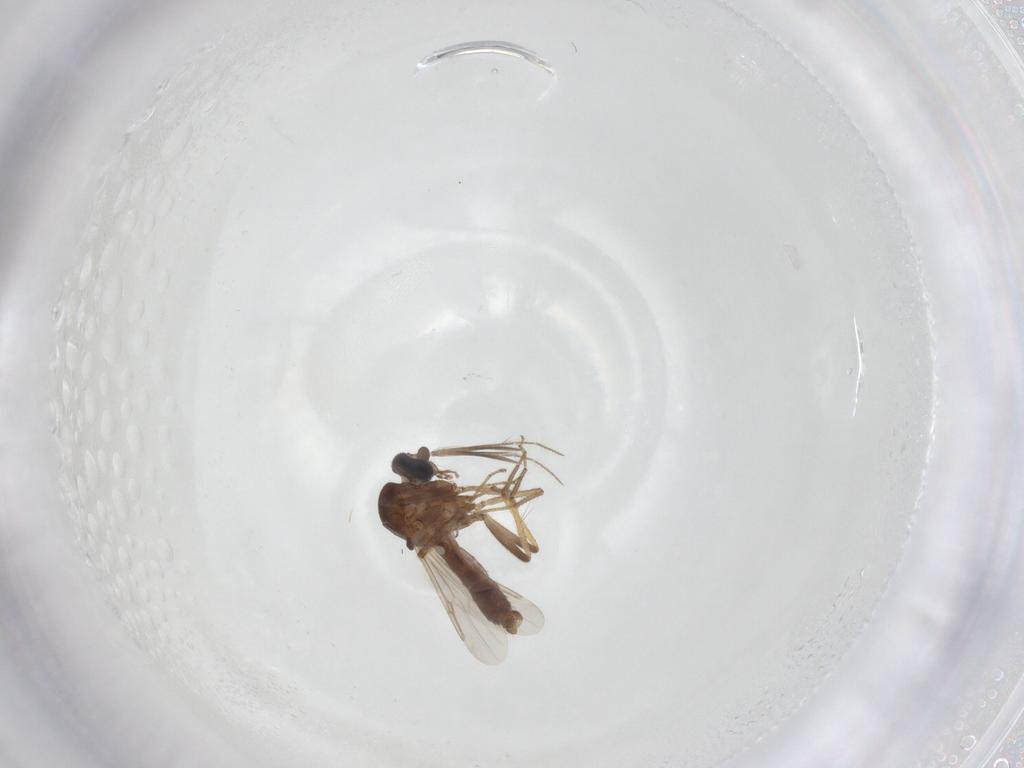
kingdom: Animalia
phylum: Arthropoda
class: Insecta
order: Diptera
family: Ceratopogonidae
